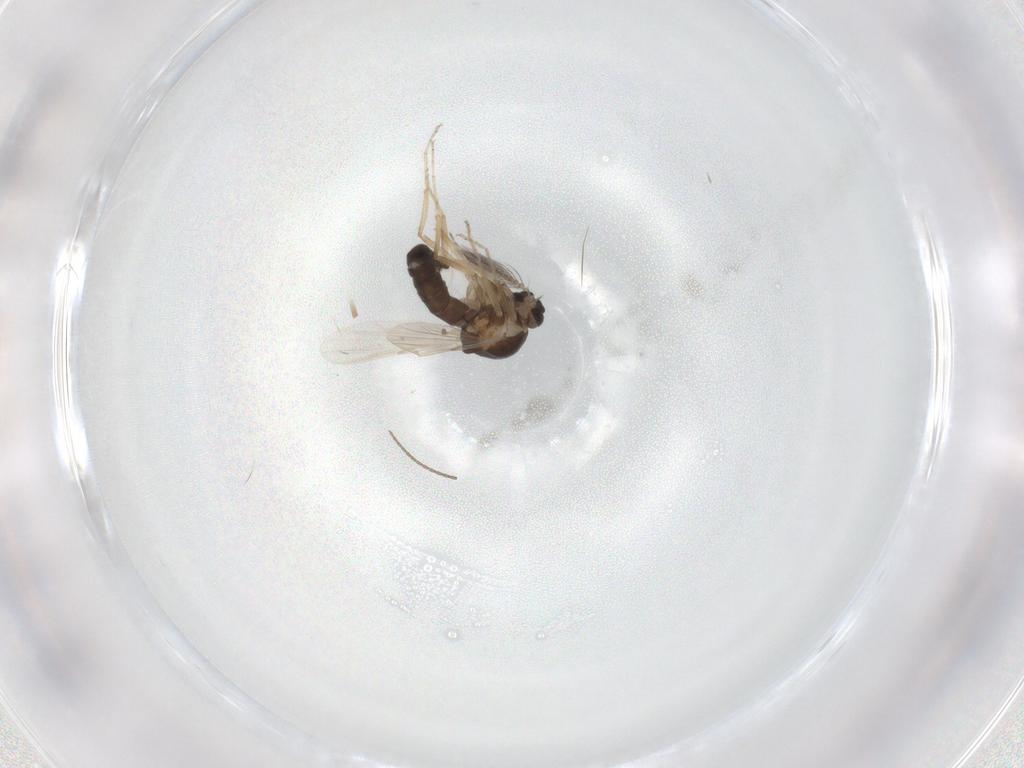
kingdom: Animalia
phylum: Arthropoda
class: Insecta
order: Diptera
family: Ceratopogonidae
